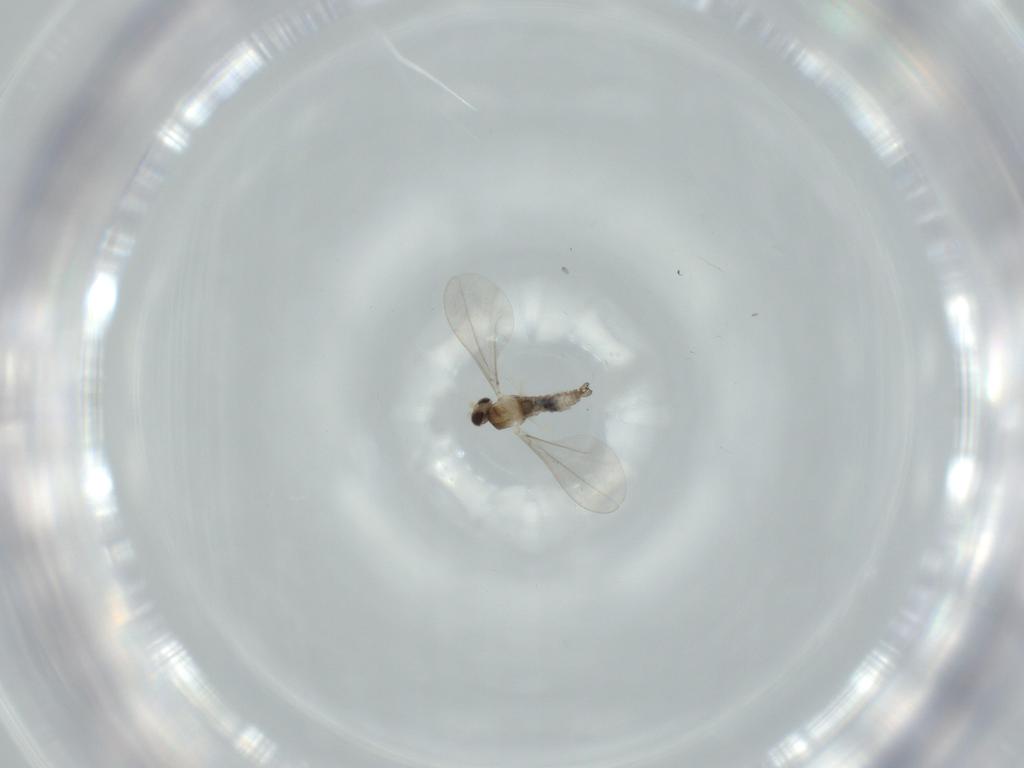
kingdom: Animalia
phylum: Arthropoda
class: Insecta
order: Diptera
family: Cecidomyiidae
